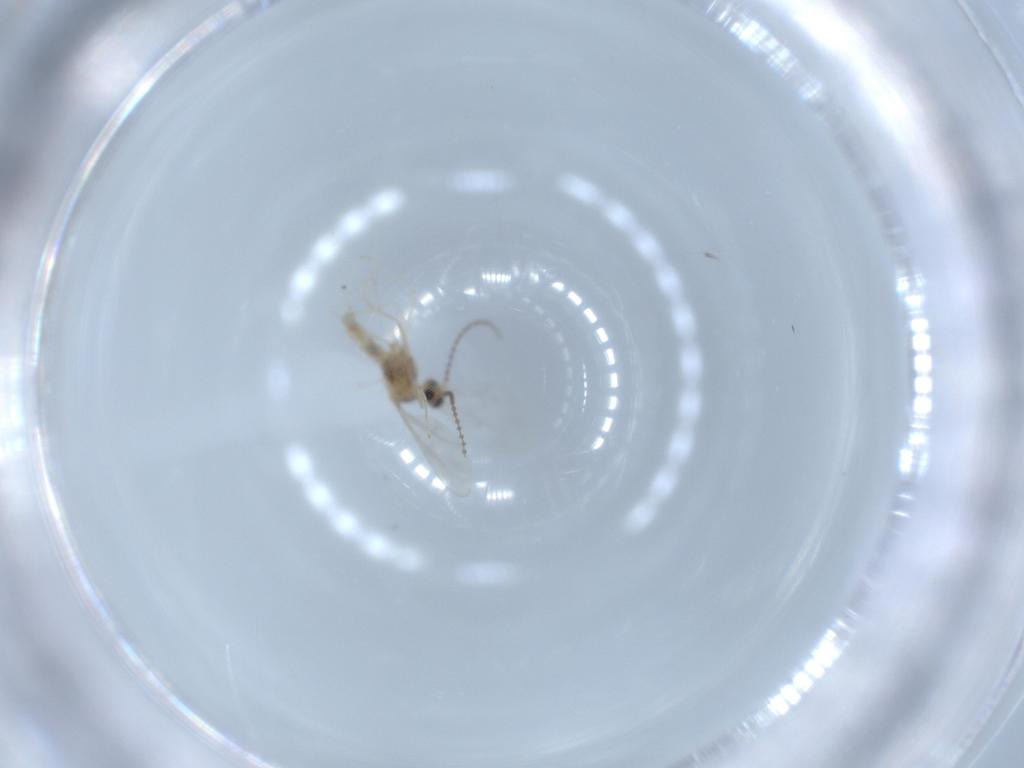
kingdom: Animalia
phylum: Arthropoda
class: Insecta
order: Diptera
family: Cecidomyiidae
